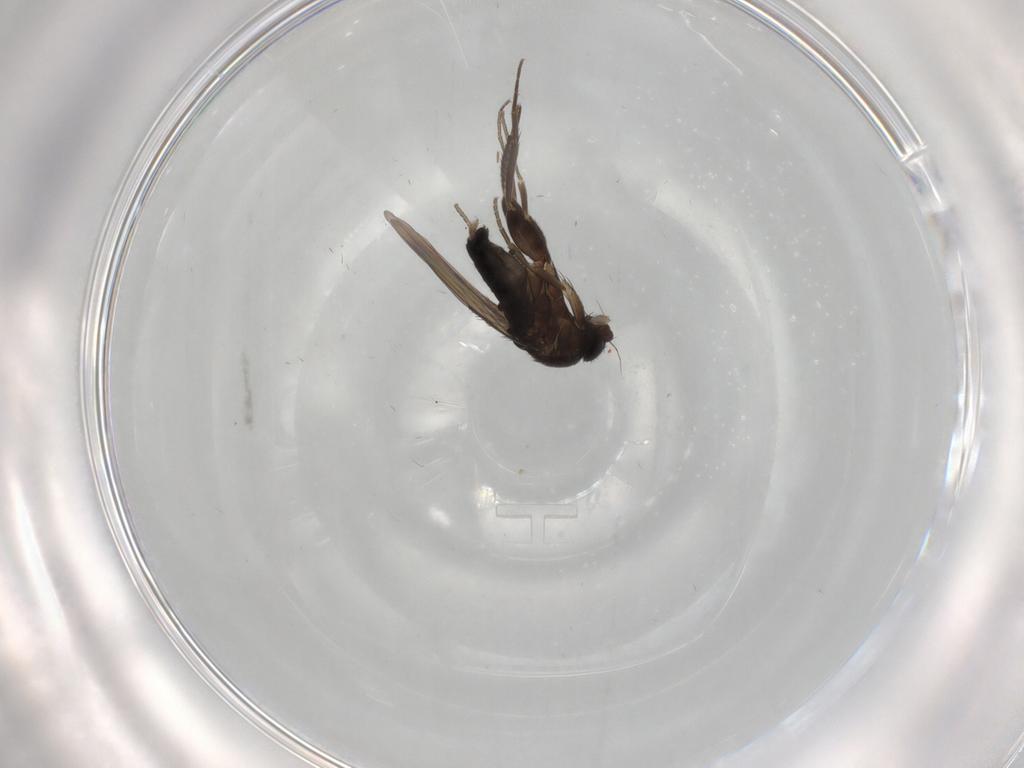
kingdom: Animalia
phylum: Arthropoda
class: Insecta
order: Diptera
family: Phoridae
